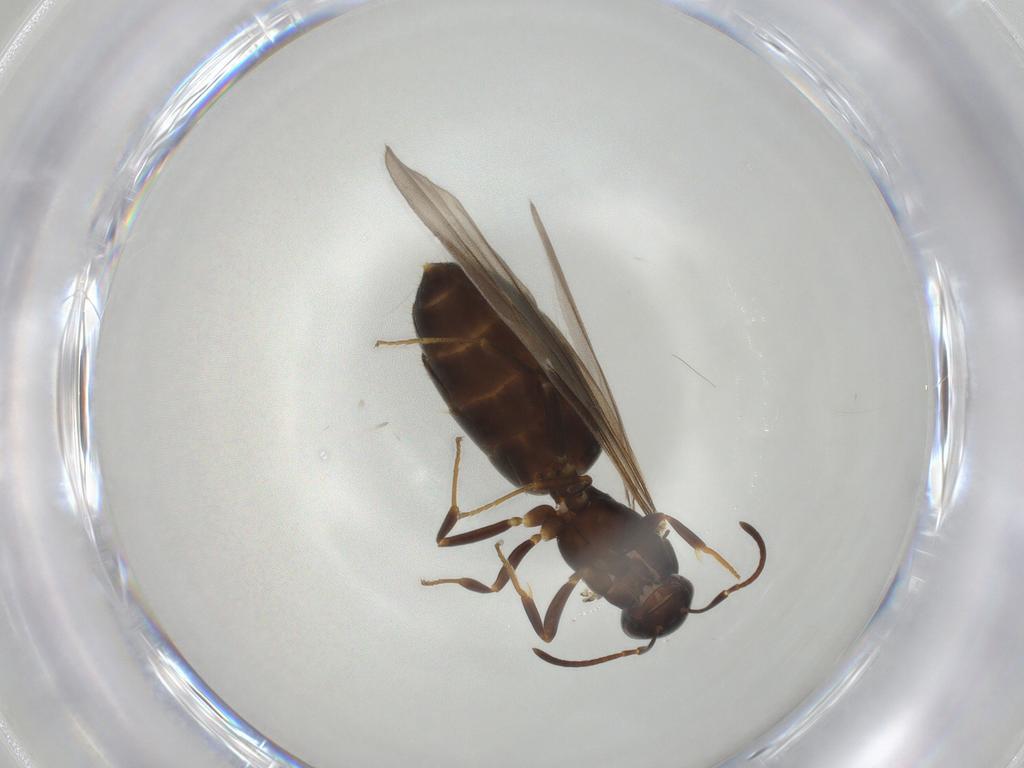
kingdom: Animalia
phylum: Arthropoda
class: Insecta
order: Hymenoptera
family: Formicidae
